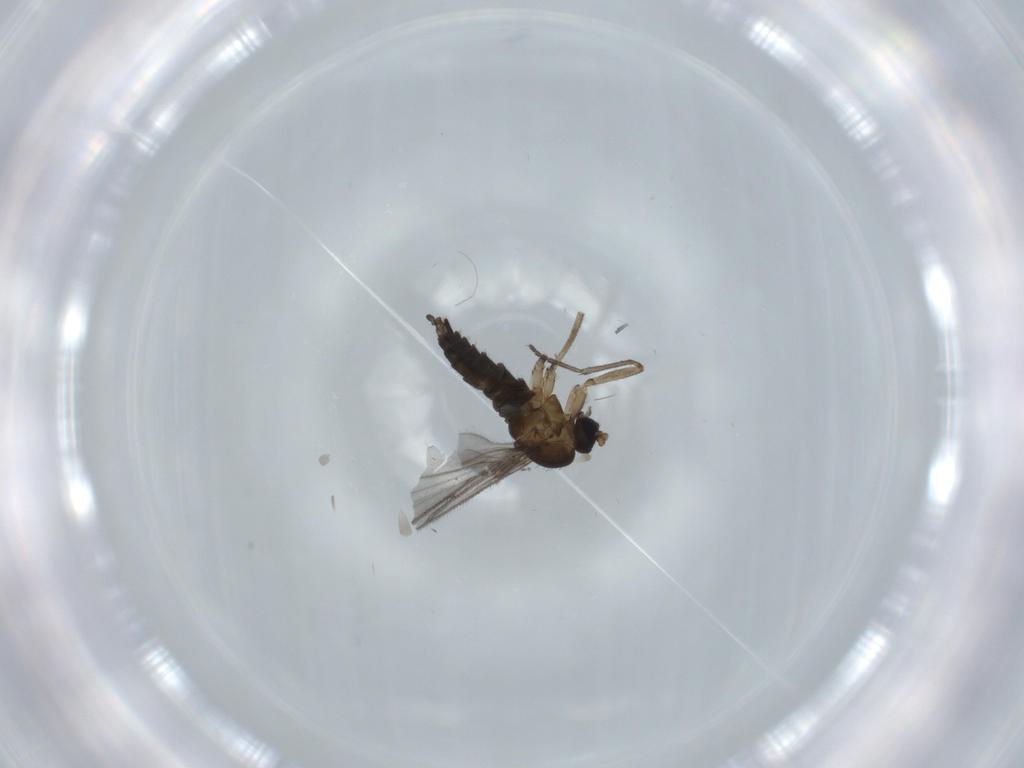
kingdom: Animalia
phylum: Arthropoda
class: Insecta
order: Diptera
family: Sciaridae
